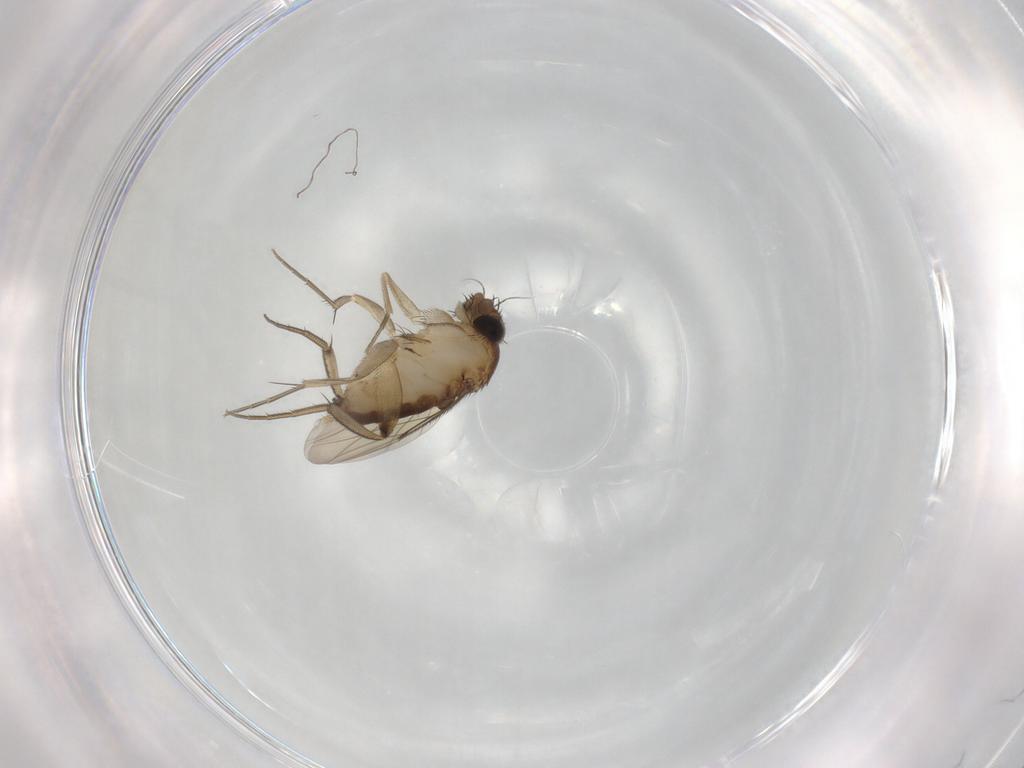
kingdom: Animalia
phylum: Arthropoda
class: Insecta
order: Diptera
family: Phoridae
